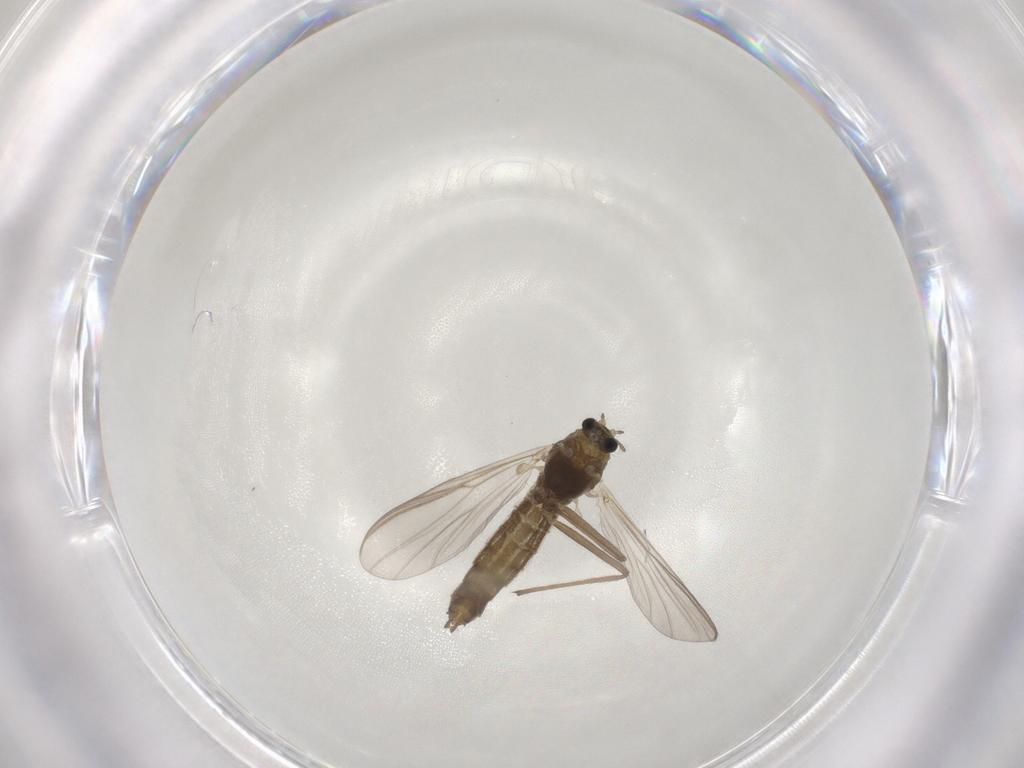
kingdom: Animalia
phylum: Arthropoda
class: Insecta
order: Diptera
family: Chironomidae
